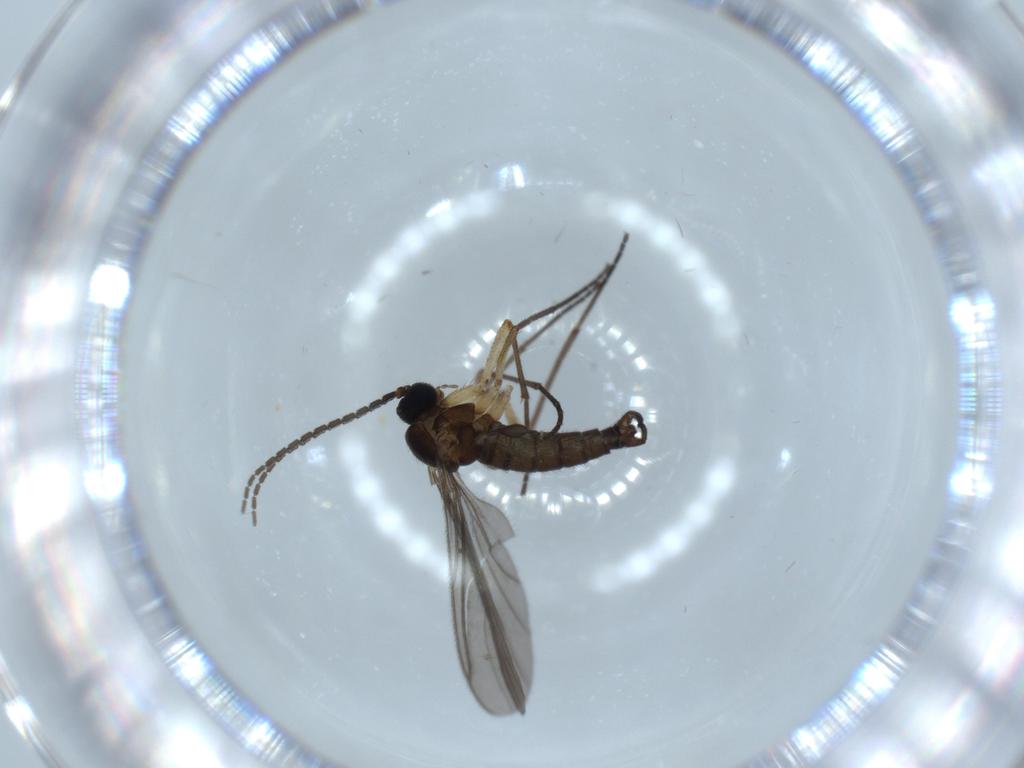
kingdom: Animalia
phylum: Arthropoda
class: Insecta
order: Diptera
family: Sciaridae
